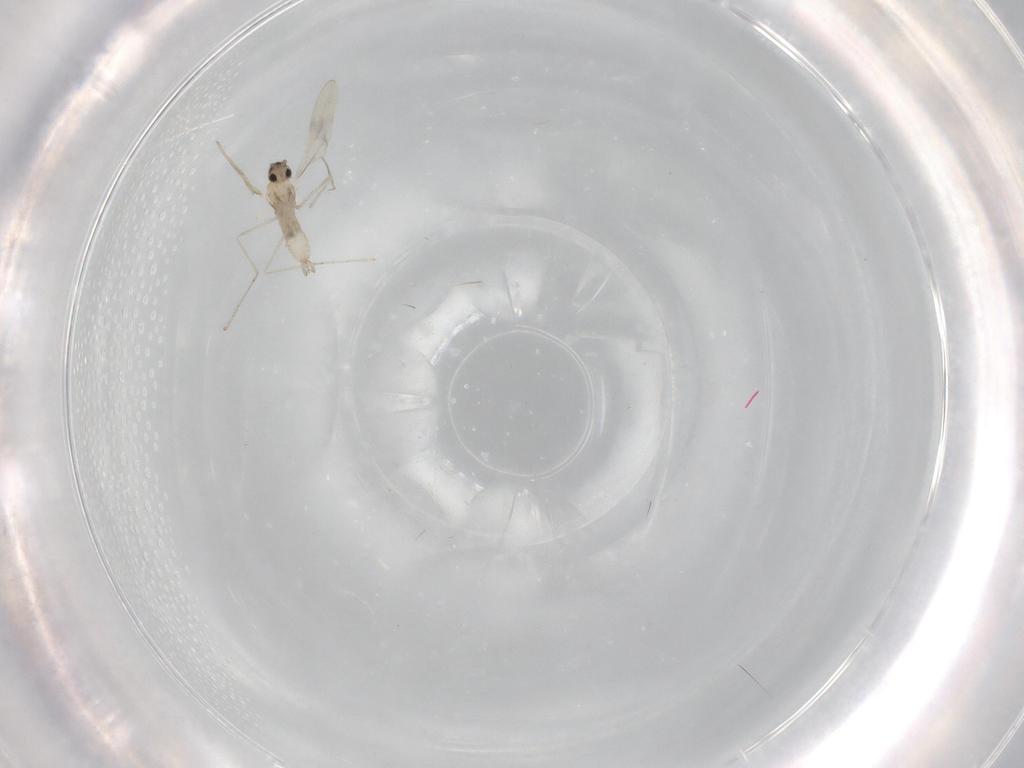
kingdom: Animalia
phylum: Arthropoda
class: Insecta
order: Diptera
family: Cecidomyiidae
